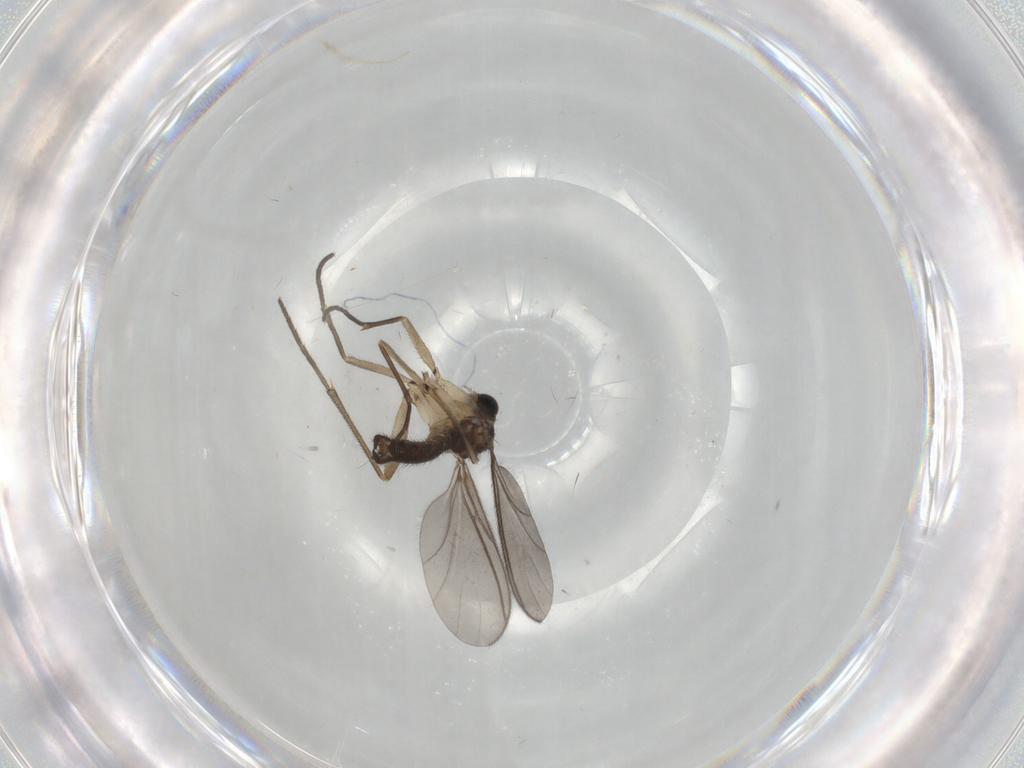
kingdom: Animalia
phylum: Arthropoda
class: Insecta
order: Diptera
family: Sciaridae
